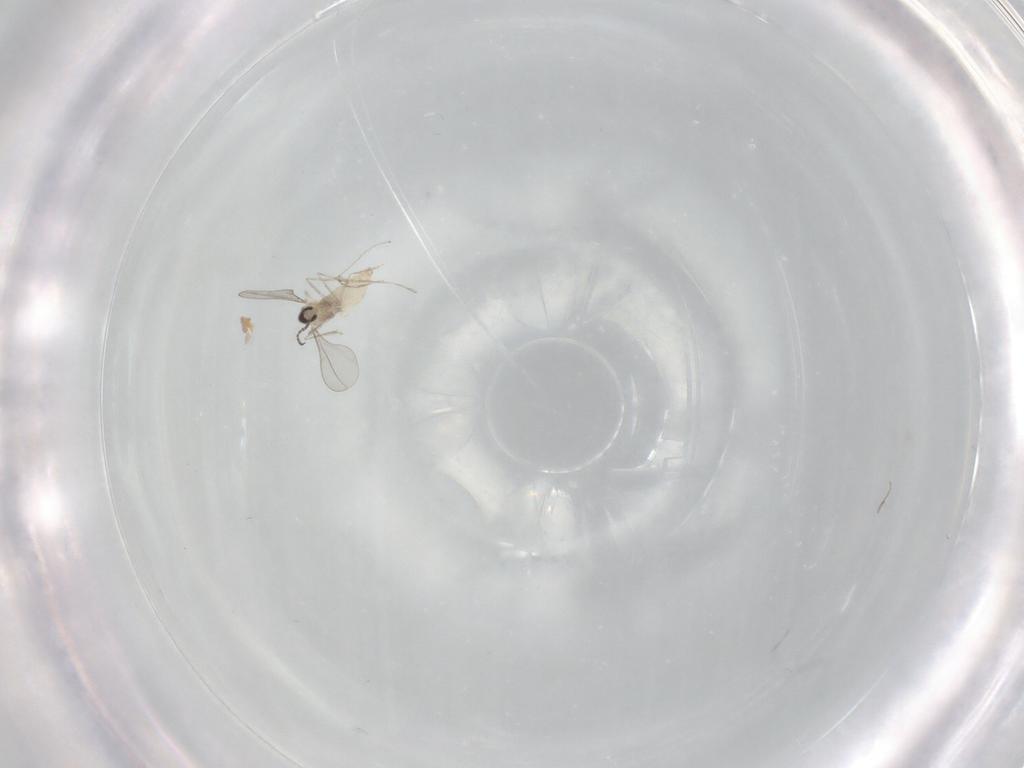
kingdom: Animalia
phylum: Arthropoda
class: Insecta
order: Diptera
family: Cecidomyiidae
